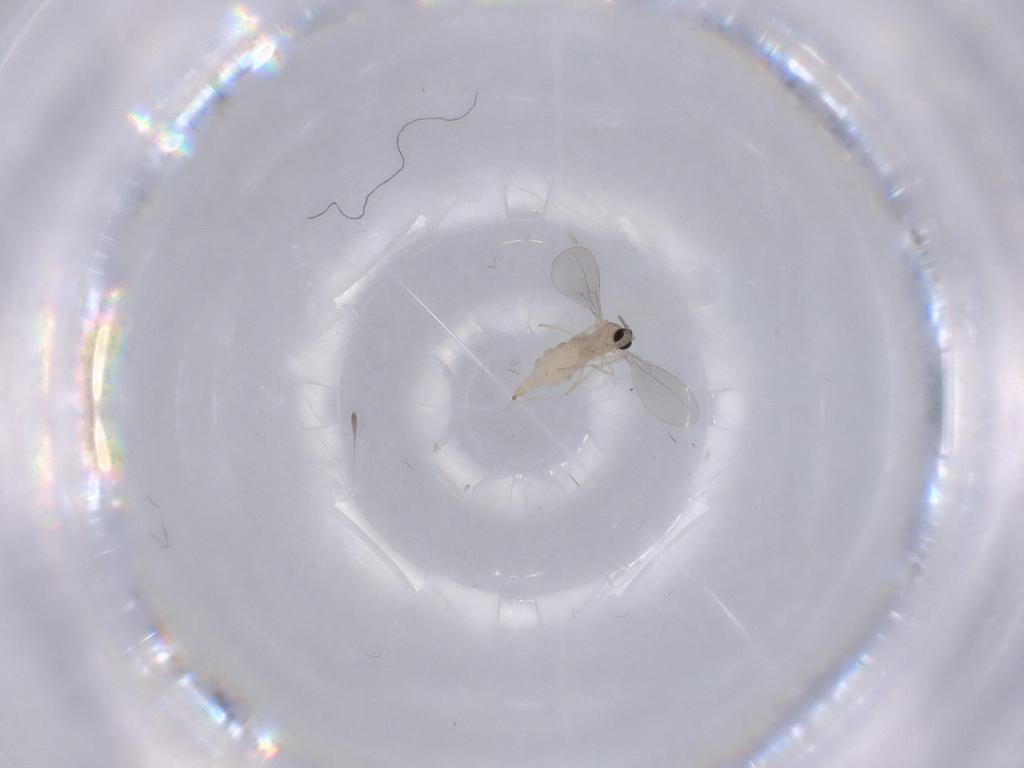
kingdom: Animalia
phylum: Arthropoda
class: Insecta
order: Diptera
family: Cecidomyiidae
